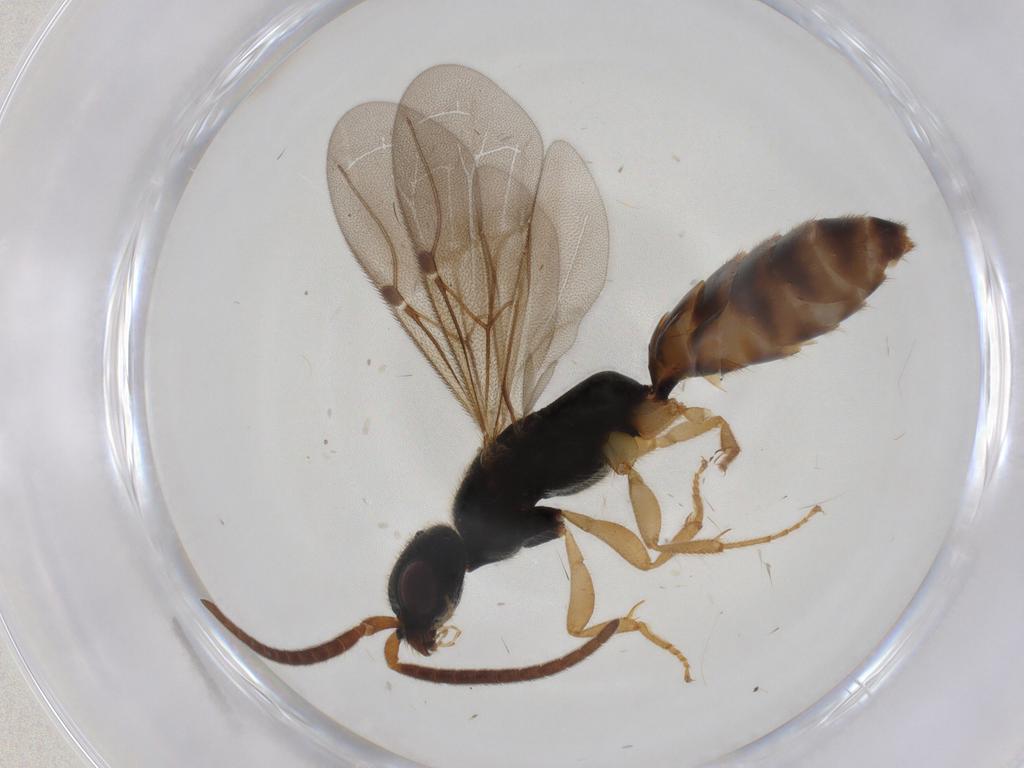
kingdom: Animalia
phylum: Arthropoda
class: Insecta
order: Hymenoptera
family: Bethylidae
